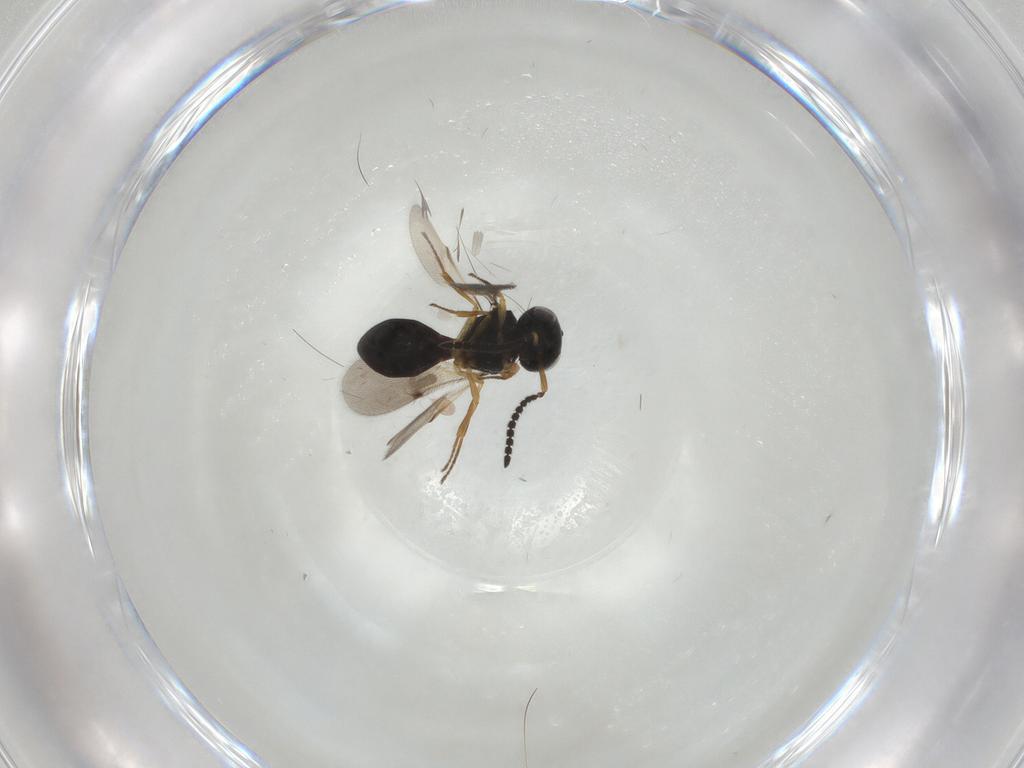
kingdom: Animalia
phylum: Arthropoda
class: Insecta
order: Hymenoptera
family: Scelionidae
